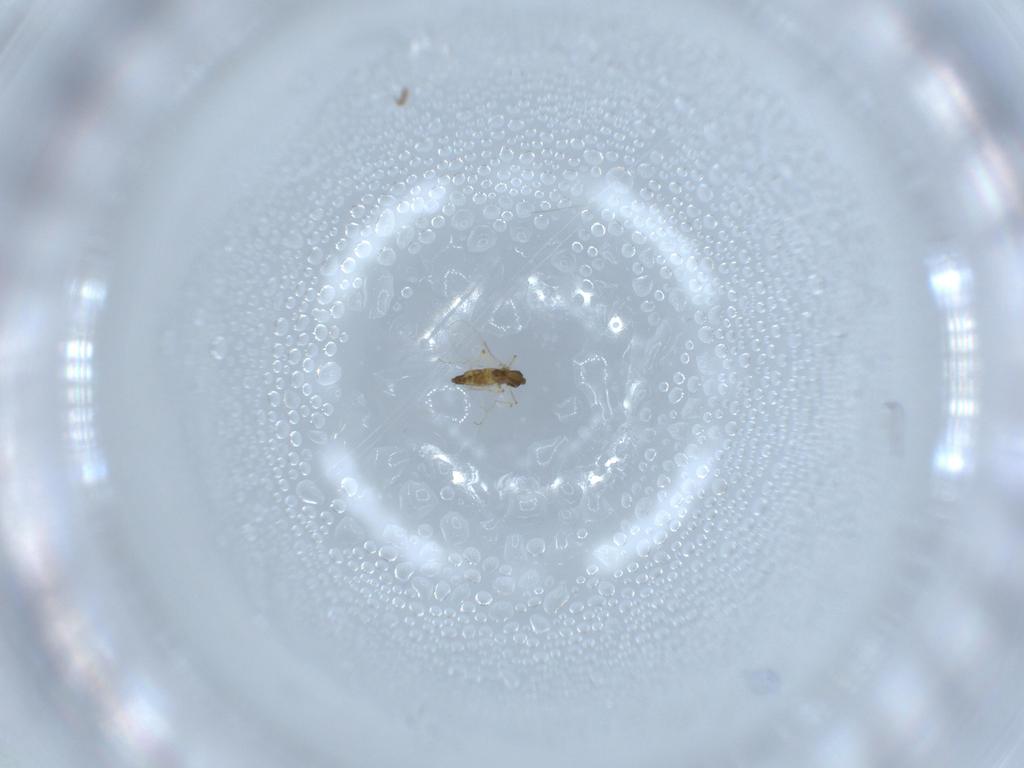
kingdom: Animalia
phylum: Arthropoda
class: Insecta
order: Diptera
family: Chironomidae
